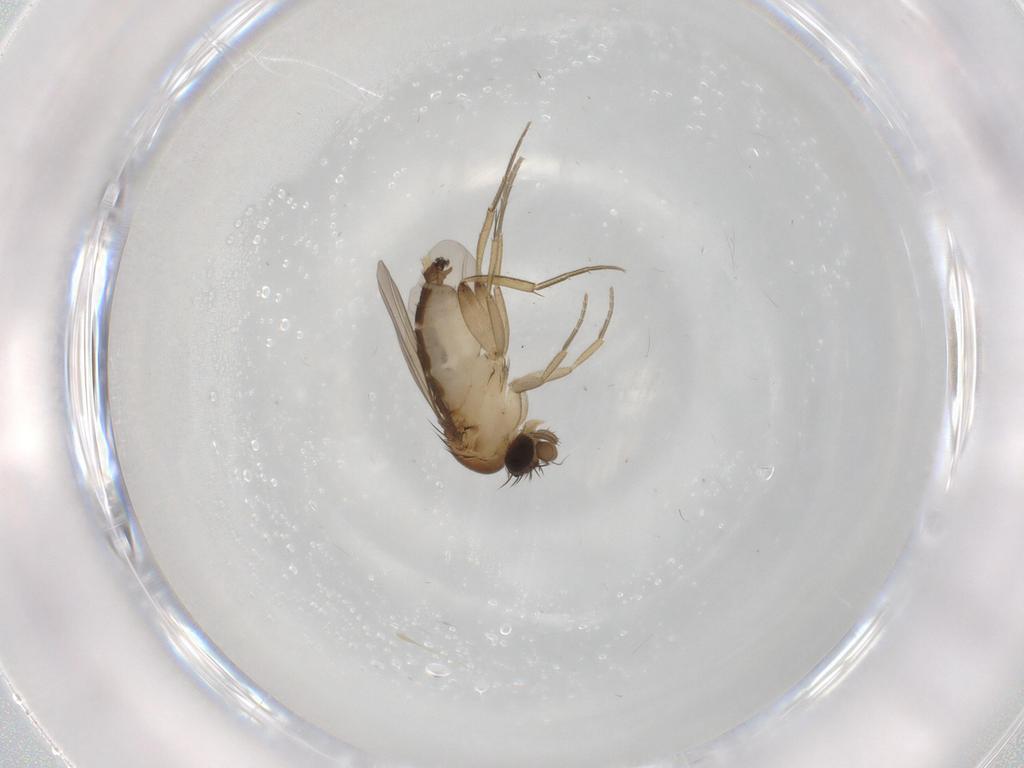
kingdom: Animalia
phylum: Arthropoda
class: Insecta
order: Diptera
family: Phoridae
